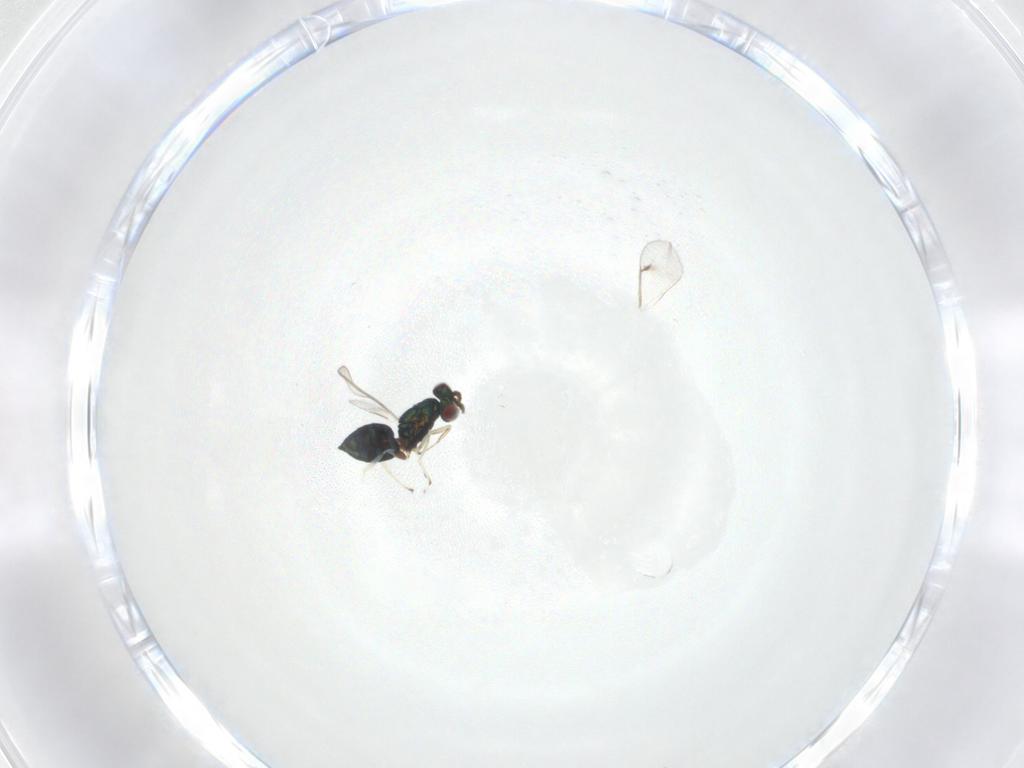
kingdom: Animalia
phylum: Arthropoda
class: Insecta
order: Hymenoptera
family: Eulophidae
